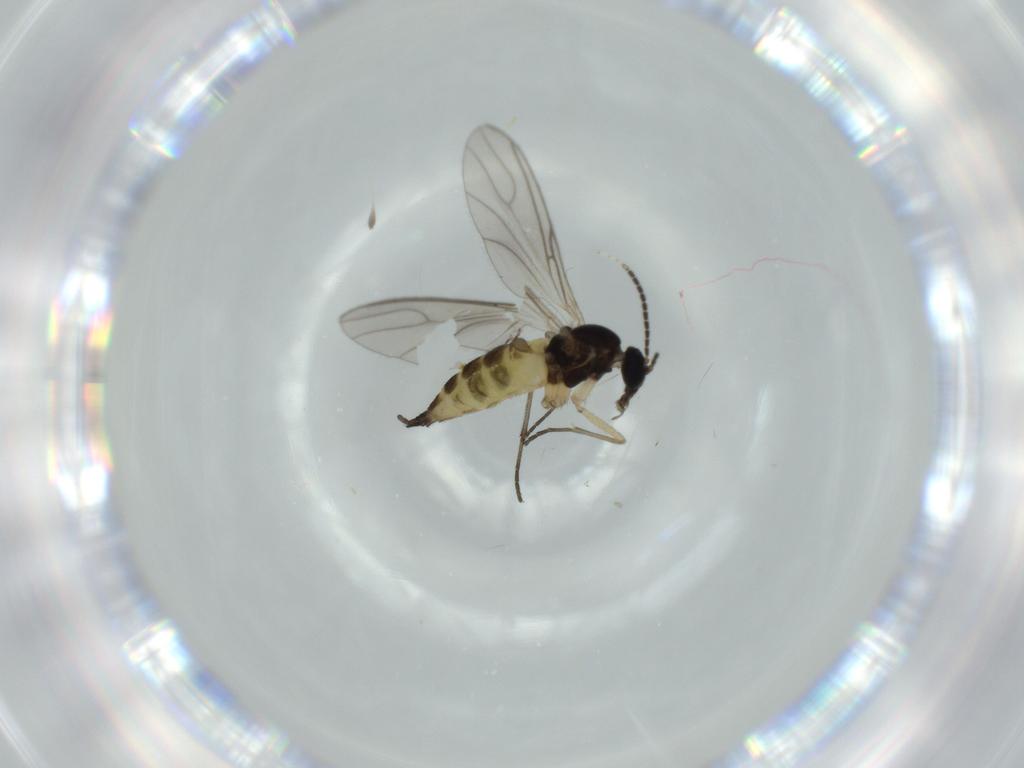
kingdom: Animalia
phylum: Arthropoda
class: Insecta
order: Diptera
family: Sciaridae
